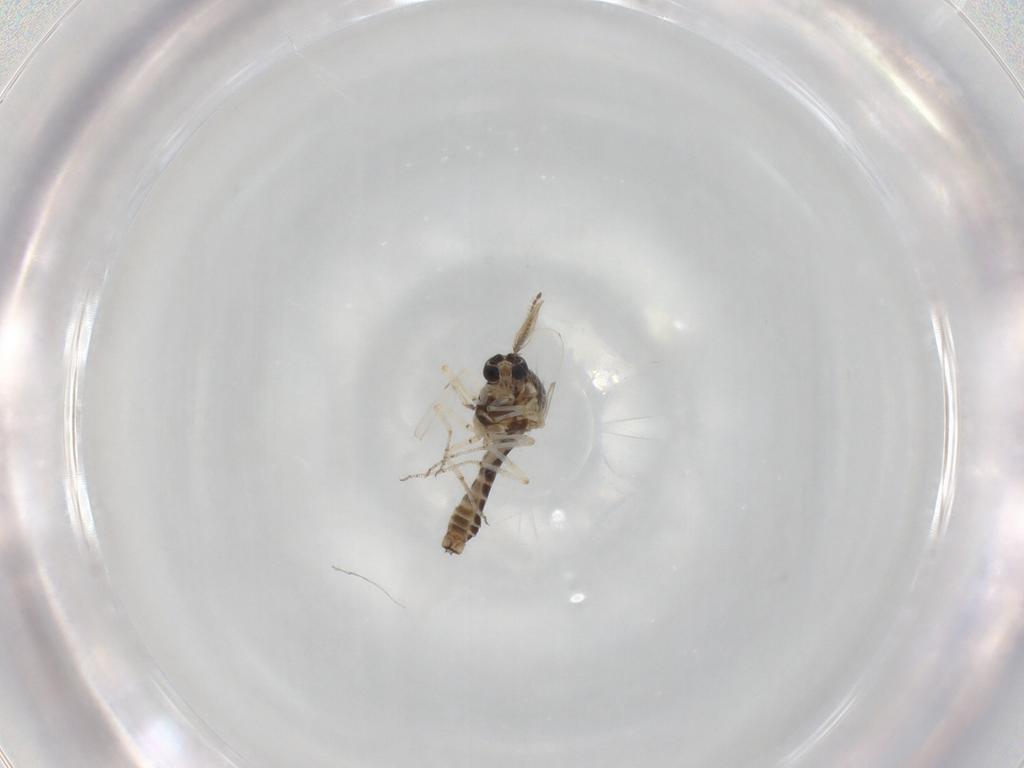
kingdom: Animalia
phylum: Arthropoda
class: Insecta
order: Diptera
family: Ceratopogonidae
